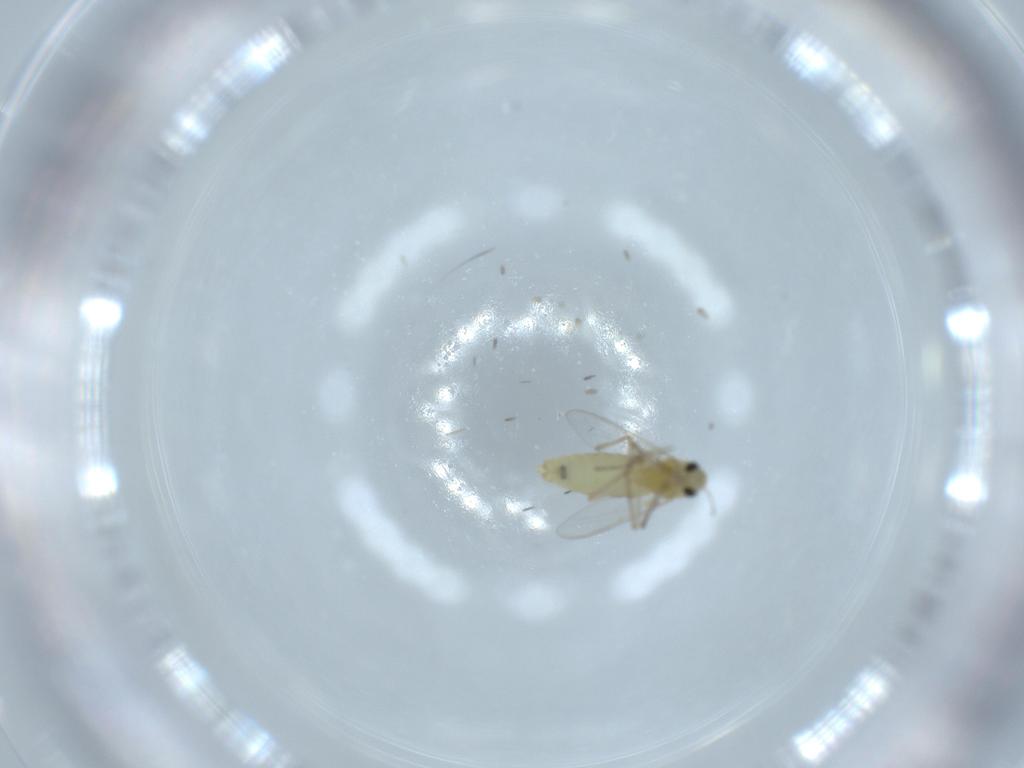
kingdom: Animalia
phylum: Arthropoda
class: Insecta
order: Diptera
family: Chironomidae
